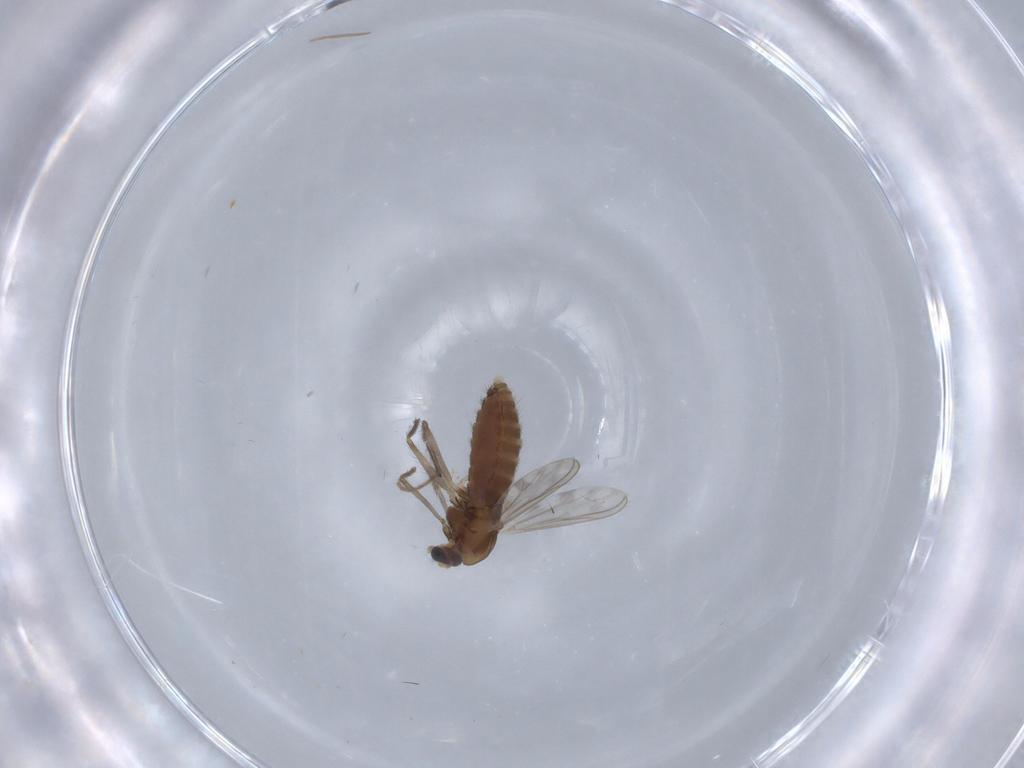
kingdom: Animalia
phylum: Arthropoda
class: Insecta
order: Diptera
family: Chironomidae
